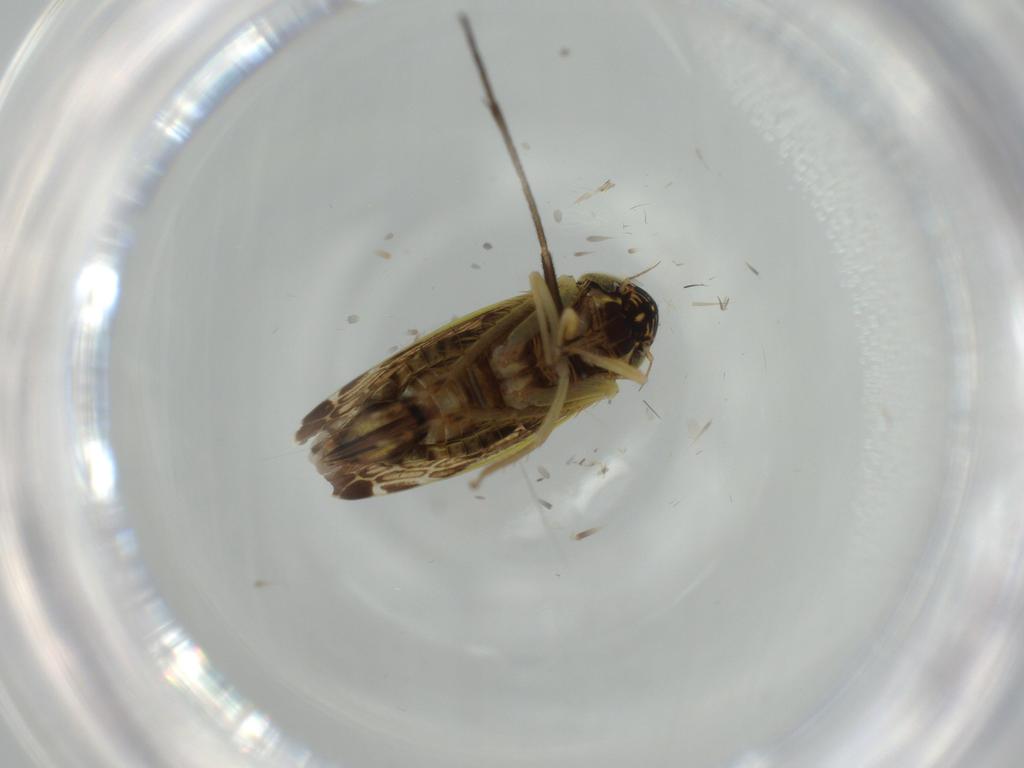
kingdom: Animalia
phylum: Arthropoda
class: Insecta
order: Hemiptera
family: Cicadellidae
